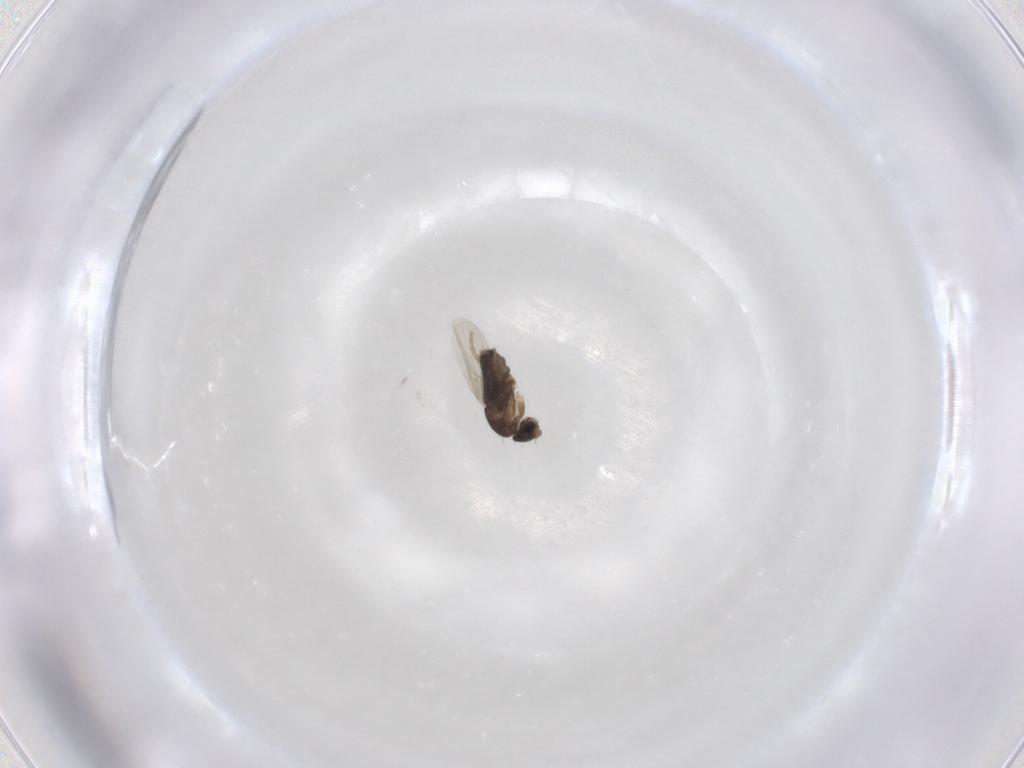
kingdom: Animalia
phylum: Arthropoda
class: Insecta
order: Diptera
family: Phoridae
